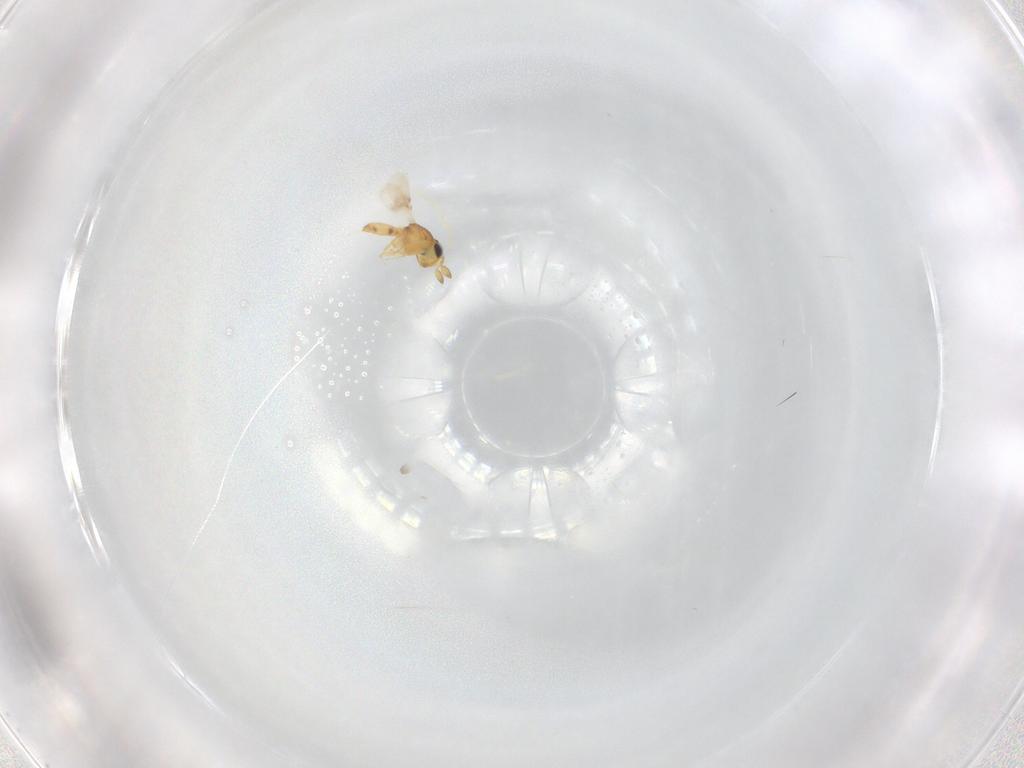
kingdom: Animalia
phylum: Arthropoda
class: Insecta
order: Hymenoptera
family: Scelionidae
